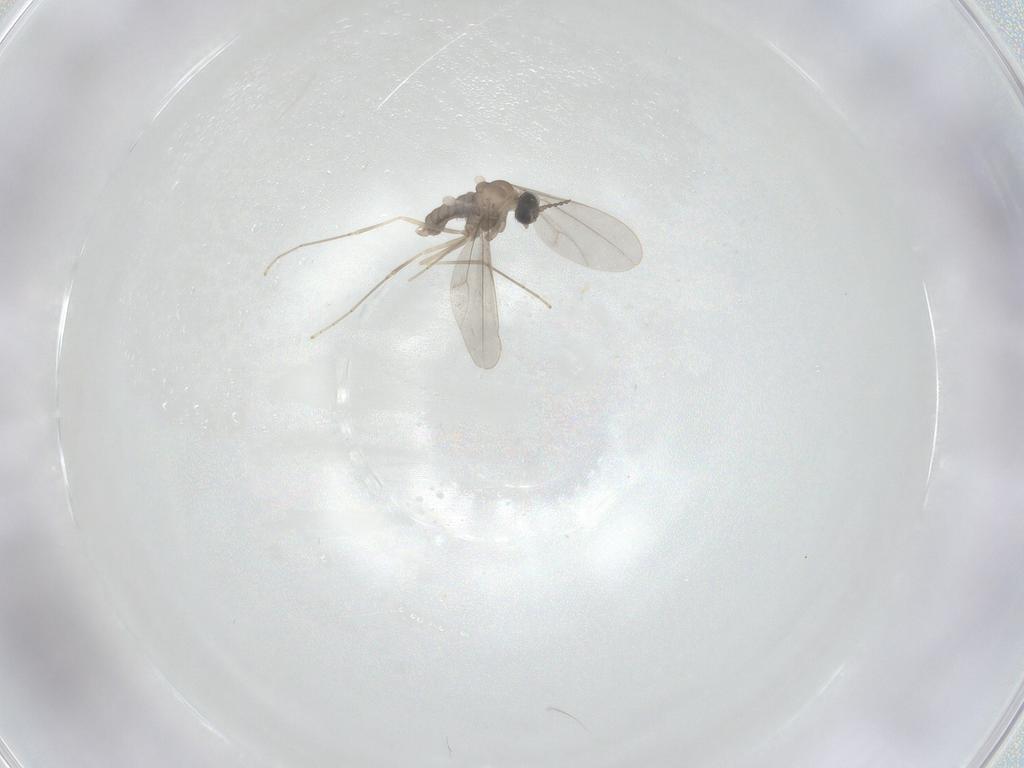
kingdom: Animalia
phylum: Arthropoda
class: Insecta
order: Diptera
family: Cecidomyiidae
